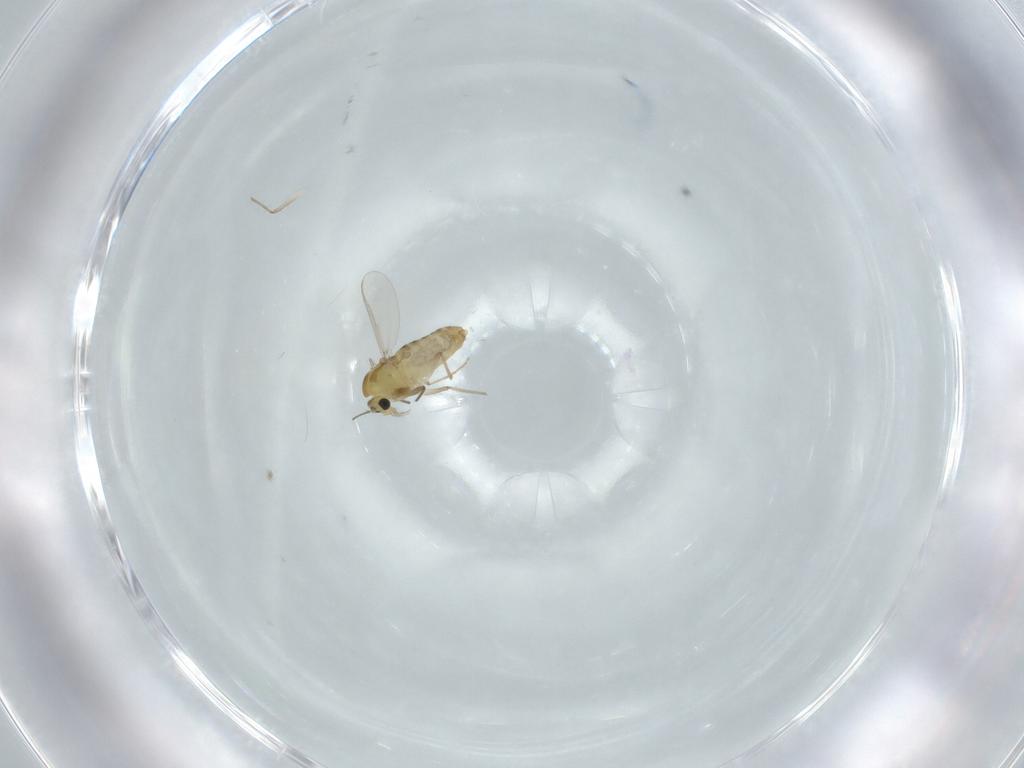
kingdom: Animalia
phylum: Arthropoda
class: Insecta
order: Diptera
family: Chironomidae
